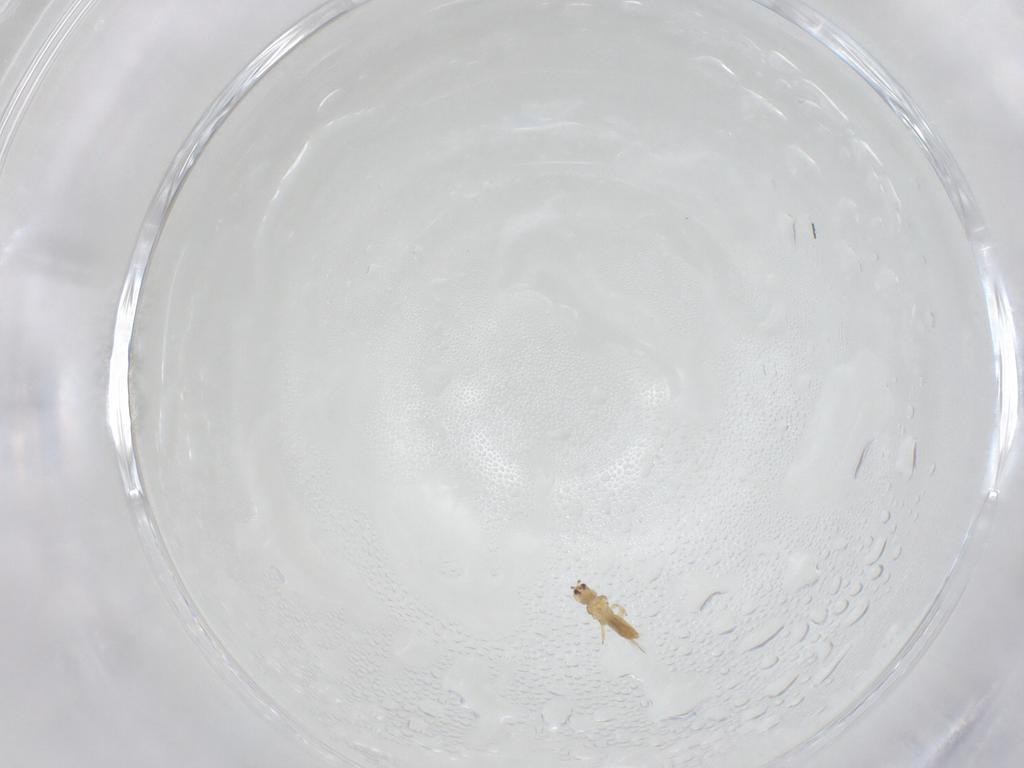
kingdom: Animalia
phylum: Arthropoda
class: Insecta
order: Thysanoptera
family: Thripidae
